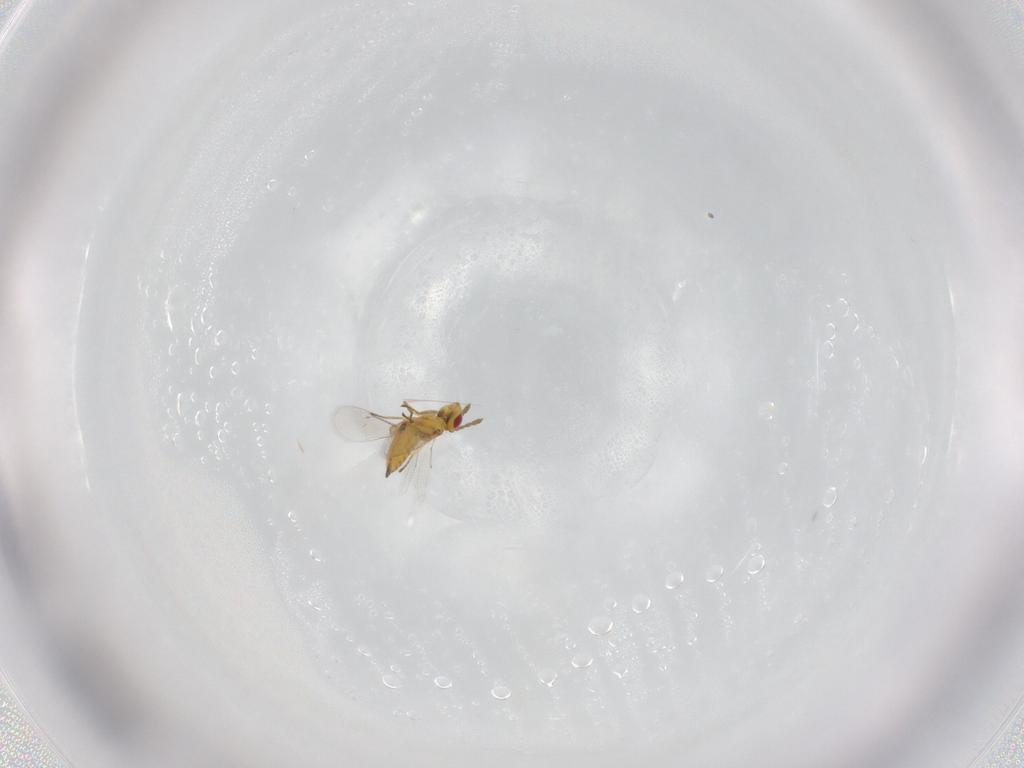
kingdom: Animalia
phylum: Arthropoda
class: Insecta
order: Hymenoptera
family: Eulophidae
